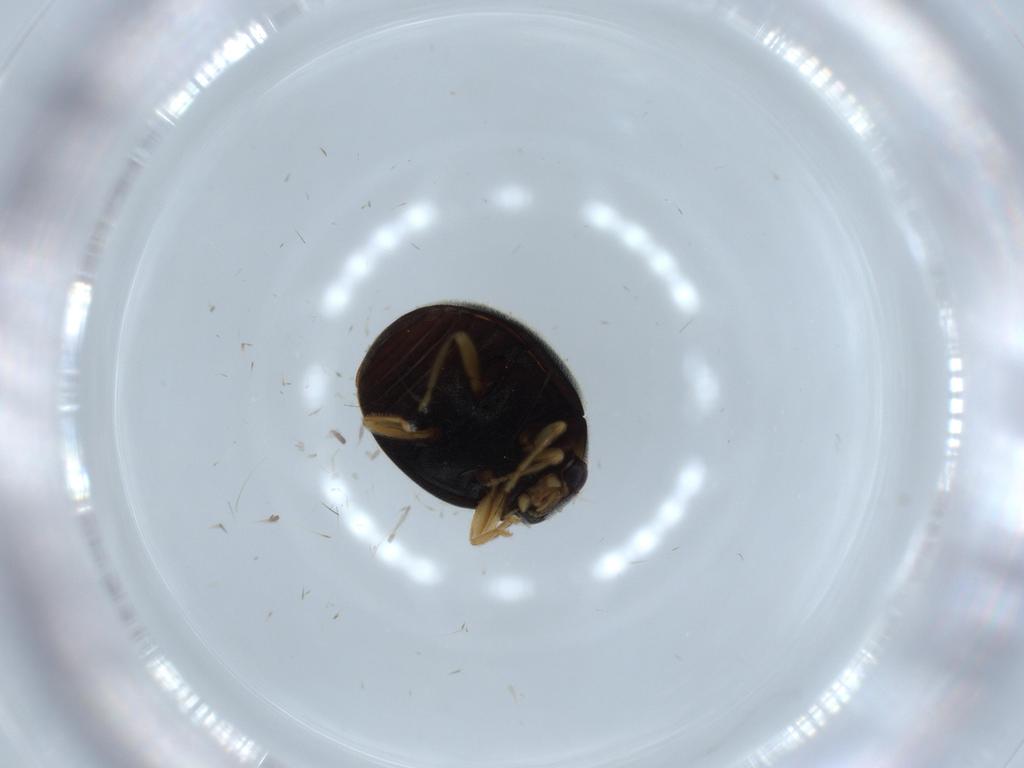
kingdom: Animalia
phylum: Arthropoda
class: Insecta
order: Coleoptera
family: Coccinellidae
